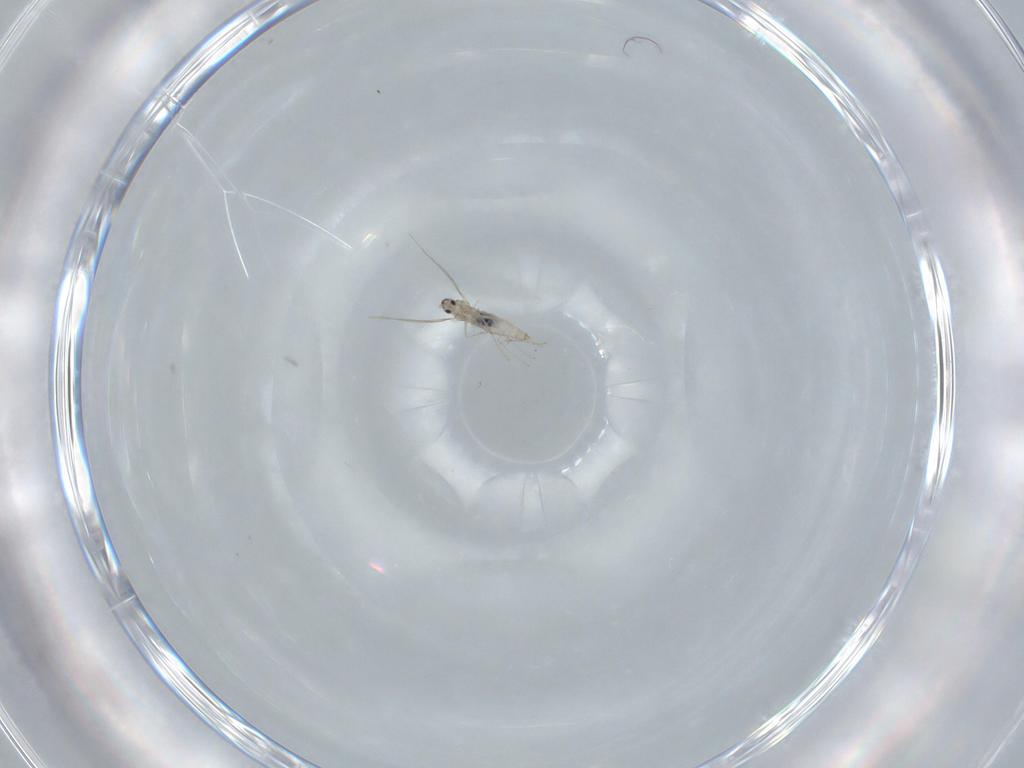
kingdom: Animalia
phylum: Arthropoda
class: Insecta
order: Diptera
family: Cecidomyiidae
